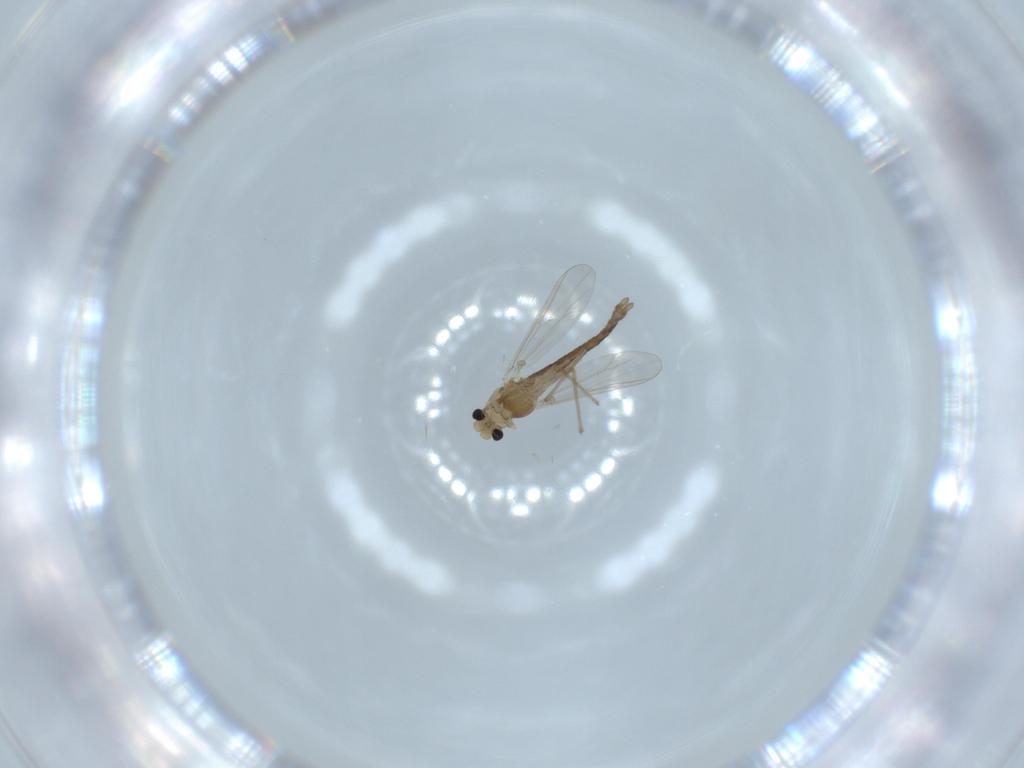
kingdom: Animalia
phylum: Arthropoda
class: Insecta
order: Diptera
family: Chironomidae
